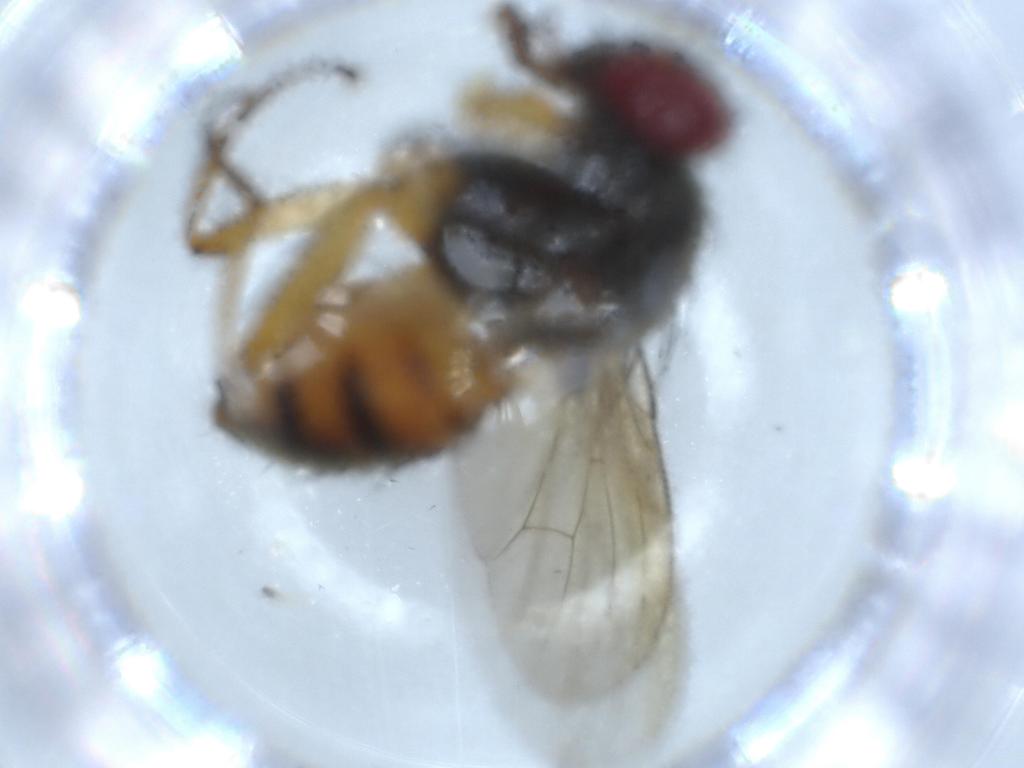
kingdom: Animalia
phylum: Arthropoda
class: Insecta
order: Diptera
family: Muscidae
